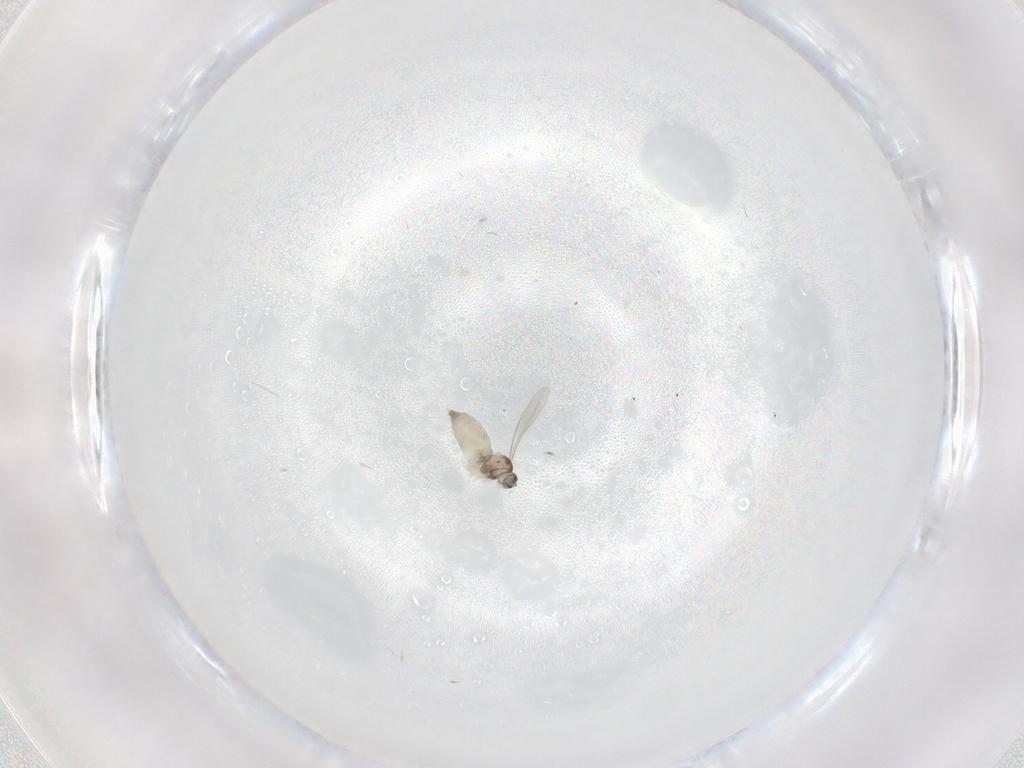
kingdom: Animalia
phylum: Arthropoda
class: Insecta
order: Diptera
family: Cecidomyiidae
